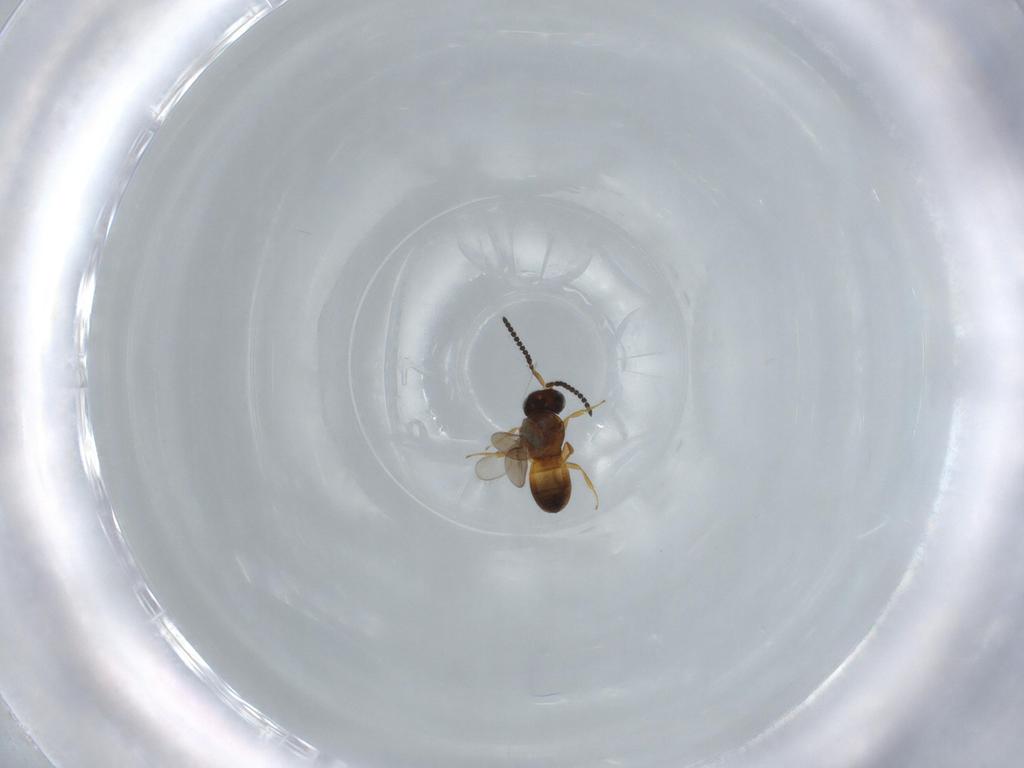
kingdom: Animalia
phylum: Arthropoda
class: Insecta
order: Hymenoptera
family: Scelionidae
